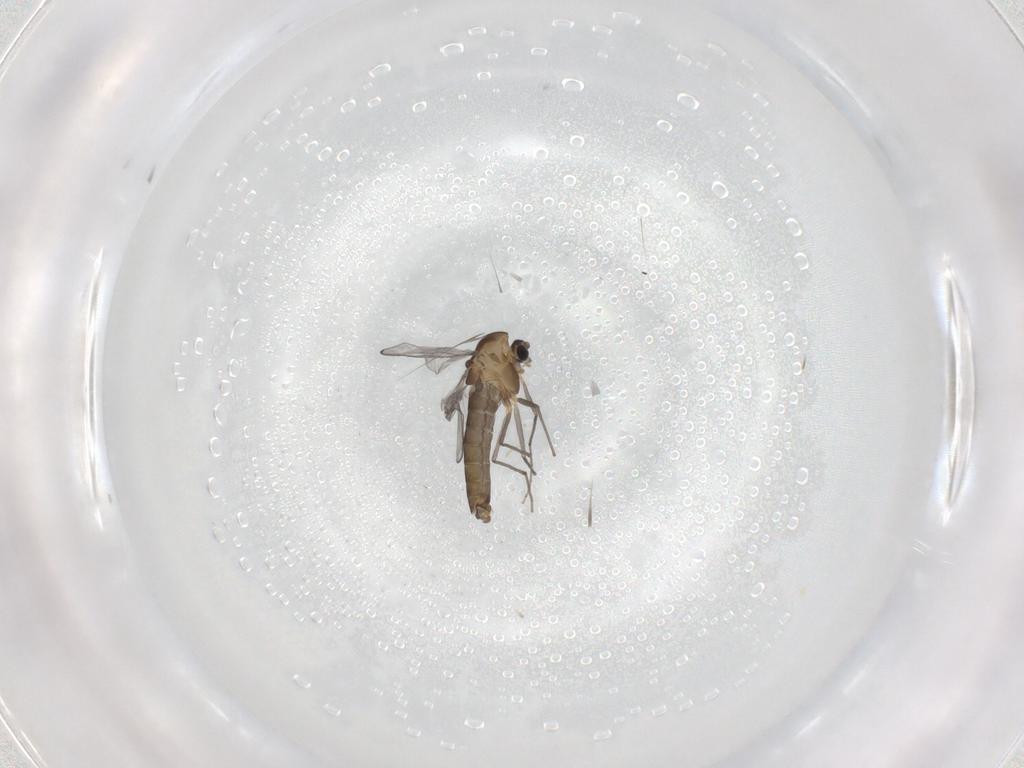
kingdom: Animalia
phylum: Arthropoda
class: Insecta
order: Diptera
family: Chironomidae
